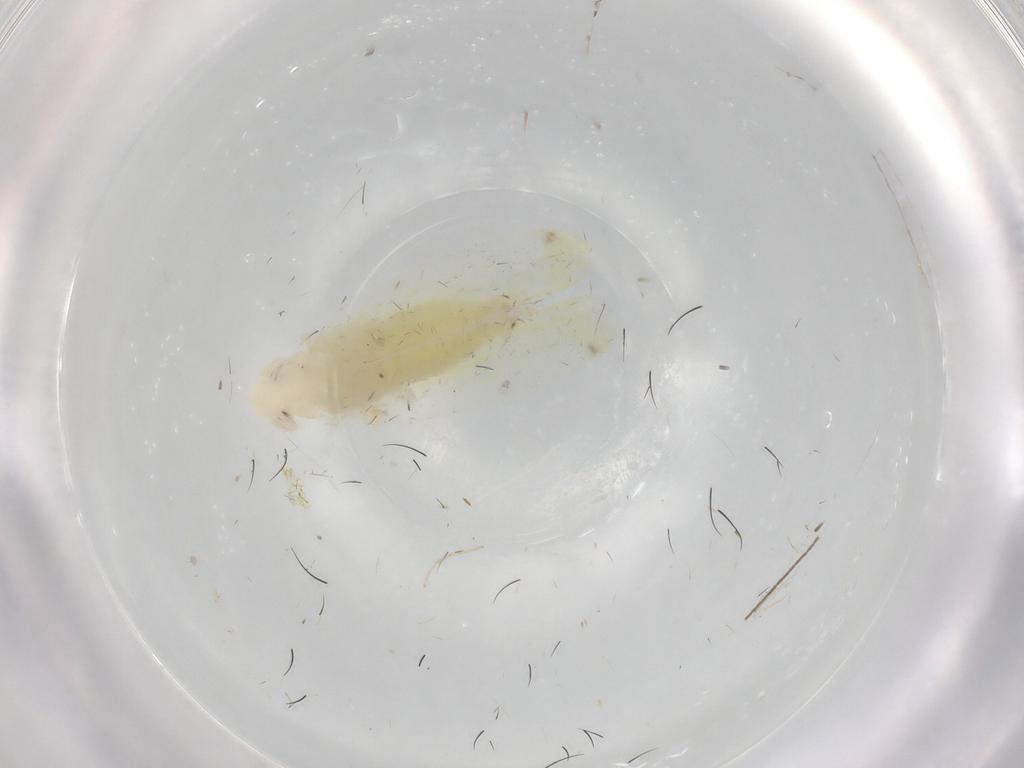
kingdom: Animalia
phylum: Arthropoda
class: Insecta
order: Hemiptera
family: Cicadellidae
